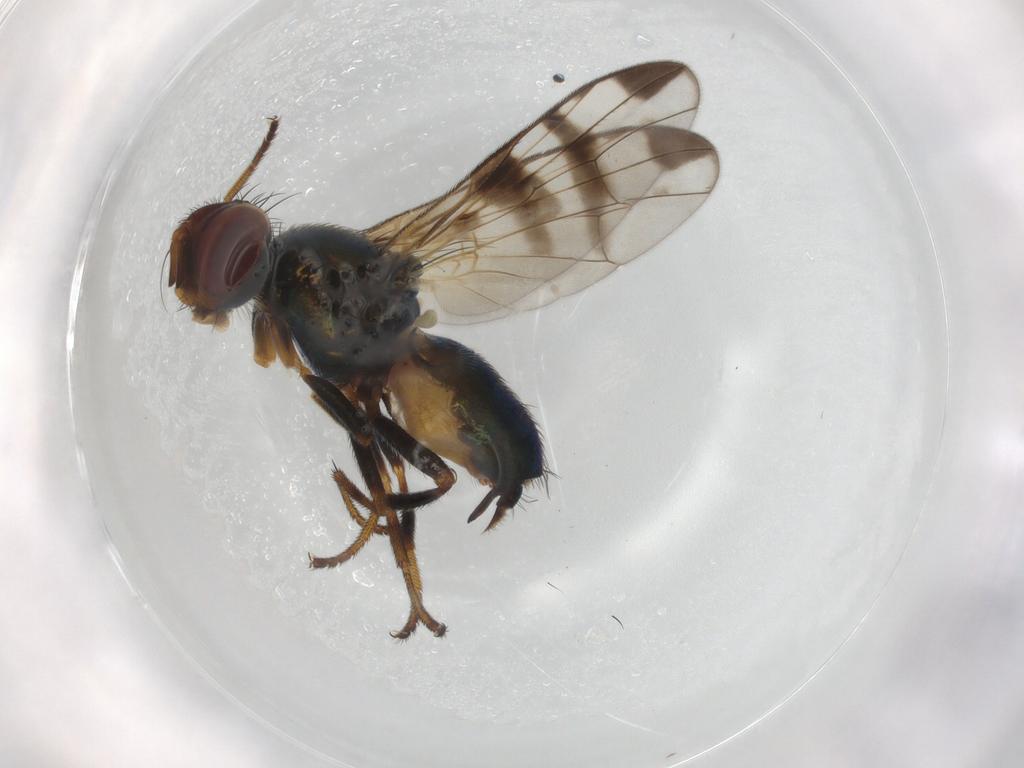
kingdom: Animalia
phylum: Arthropoda
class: Insecta
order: Diptera
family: Platystomatidae
